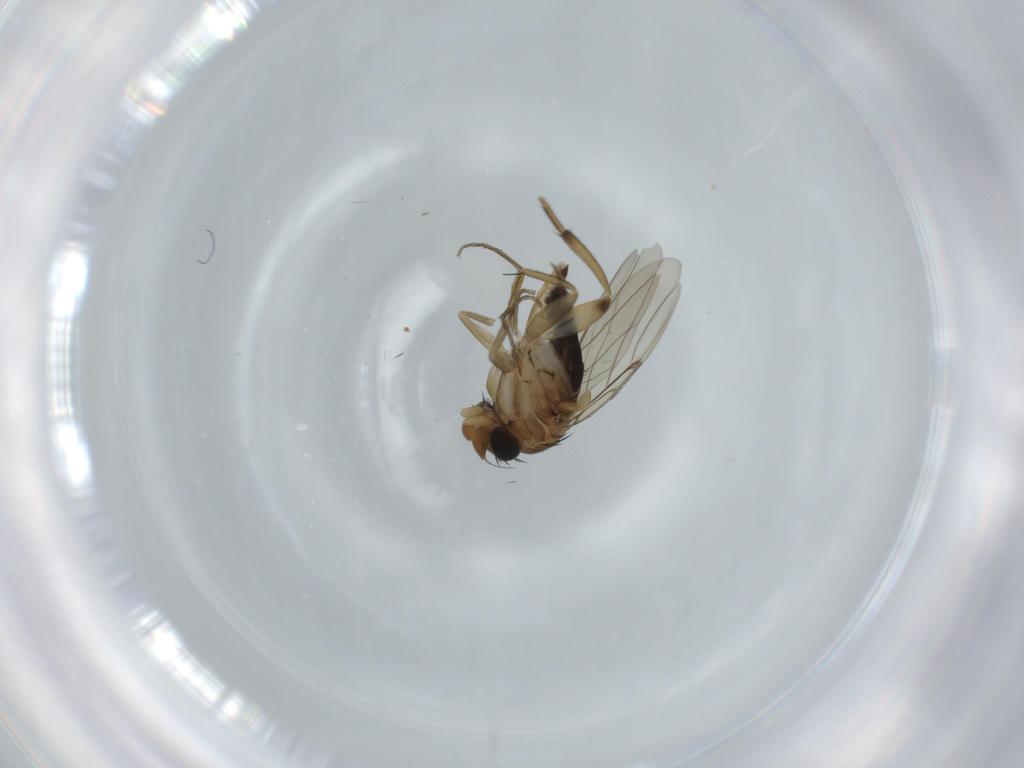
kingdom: Animalia
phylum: Arthropoda
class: Insecta
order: Diptera
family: Phoridae
